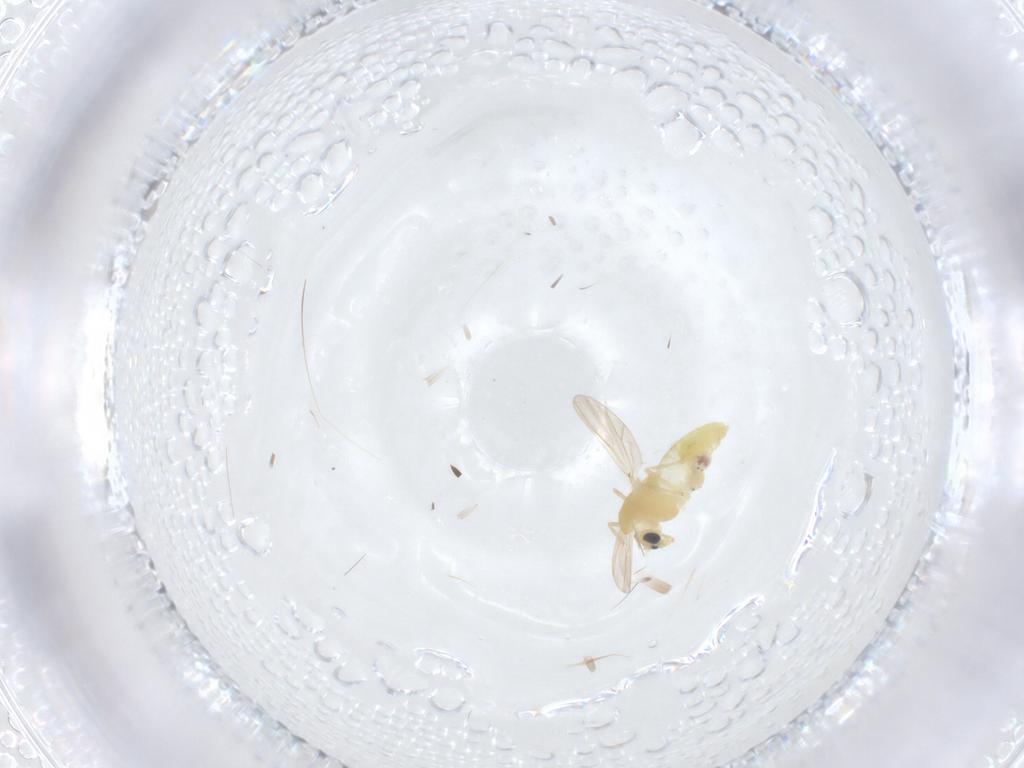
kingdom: Animalia
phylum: Arthropoda
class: Insecta
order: Diptera
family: Chironomidae
